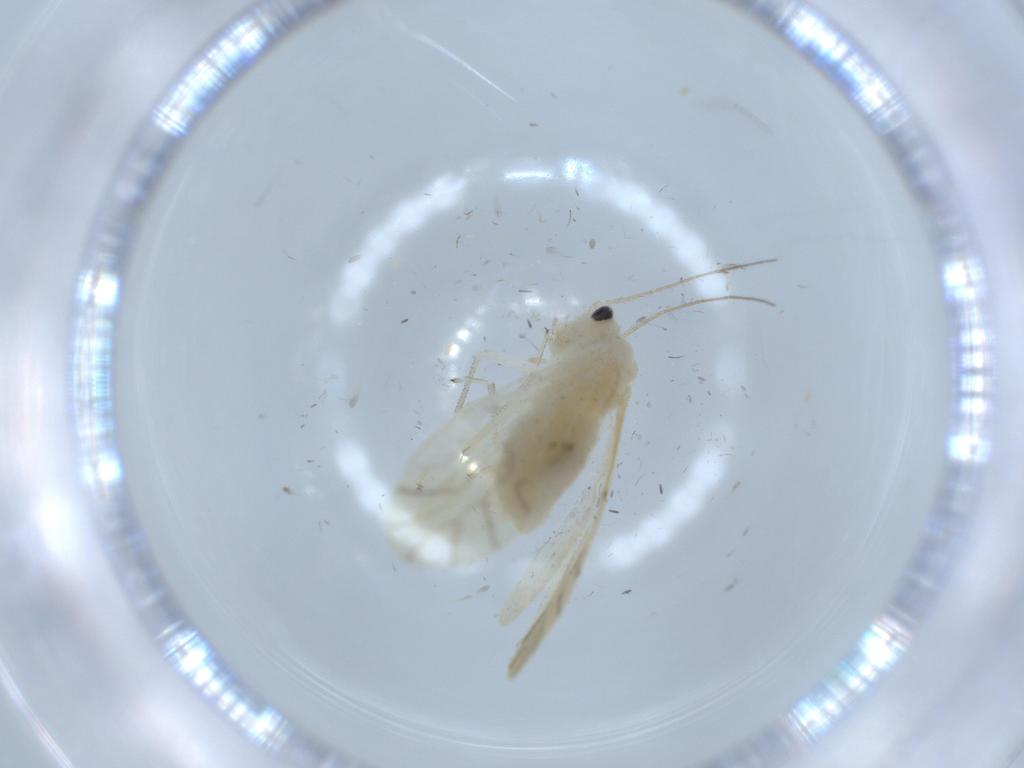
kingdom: Animalia
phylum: Arthropoda
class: Insecta
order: Psocodea
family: Caeciliusidae
